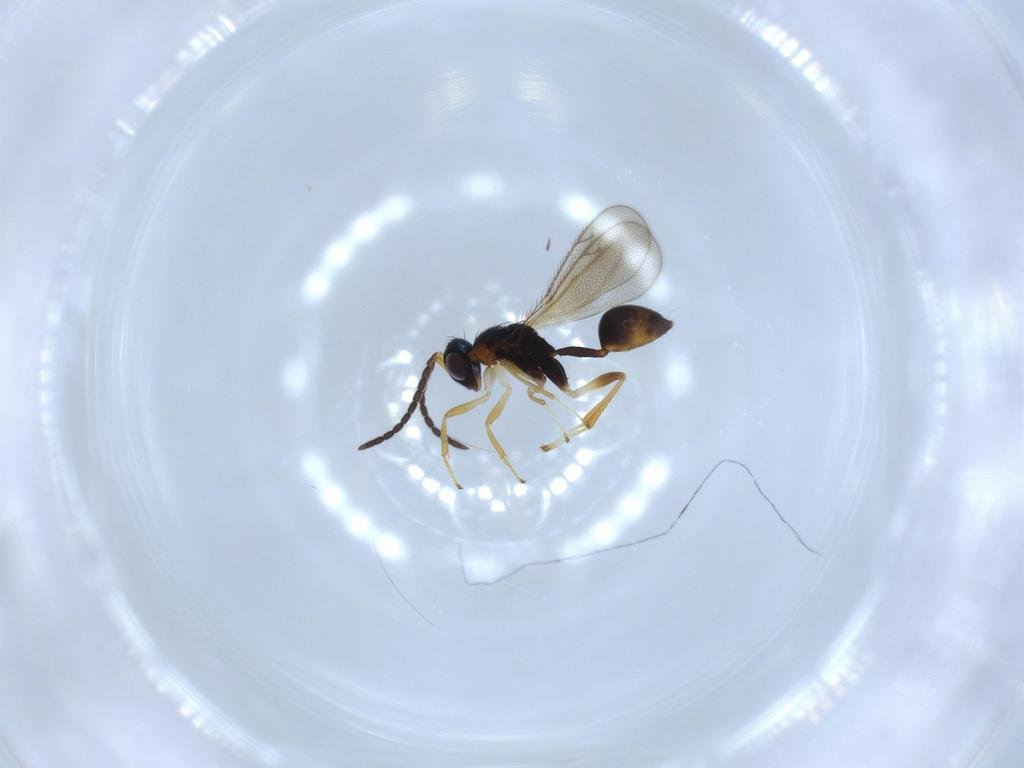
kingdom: Animalia
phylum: Arthropoda
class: Insecta
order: Hymenoptera
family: Diparidae
